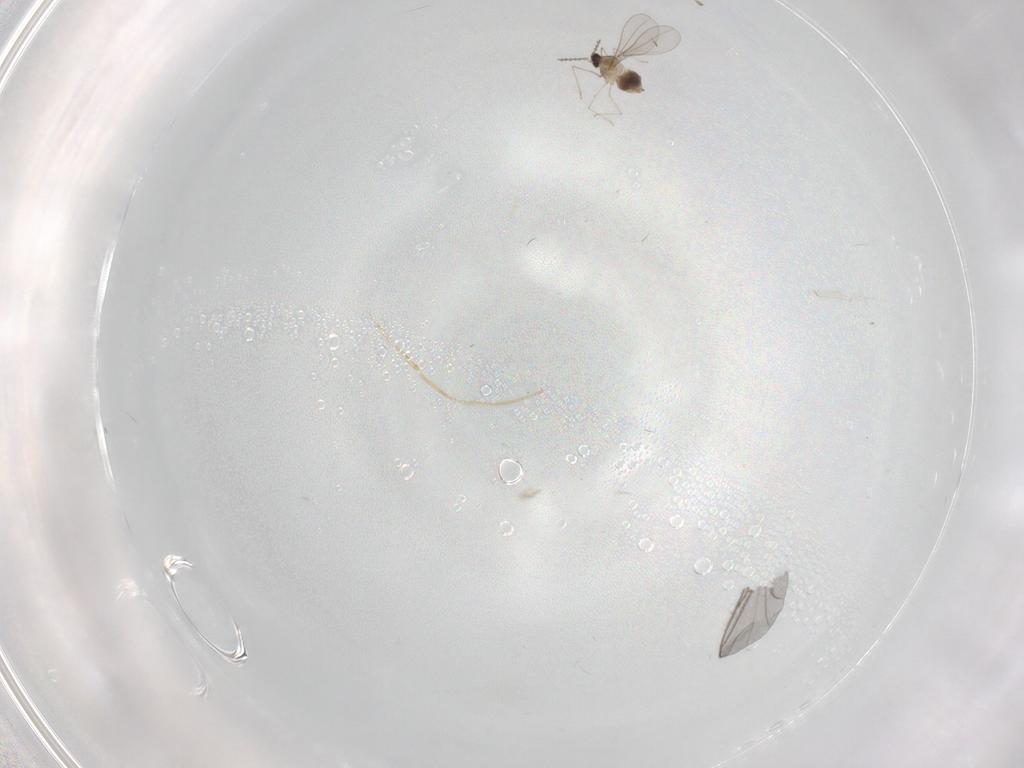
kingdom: Animalia
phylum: Arthropoda
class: Insecta
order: Diptera
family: Cecidomyiidae
